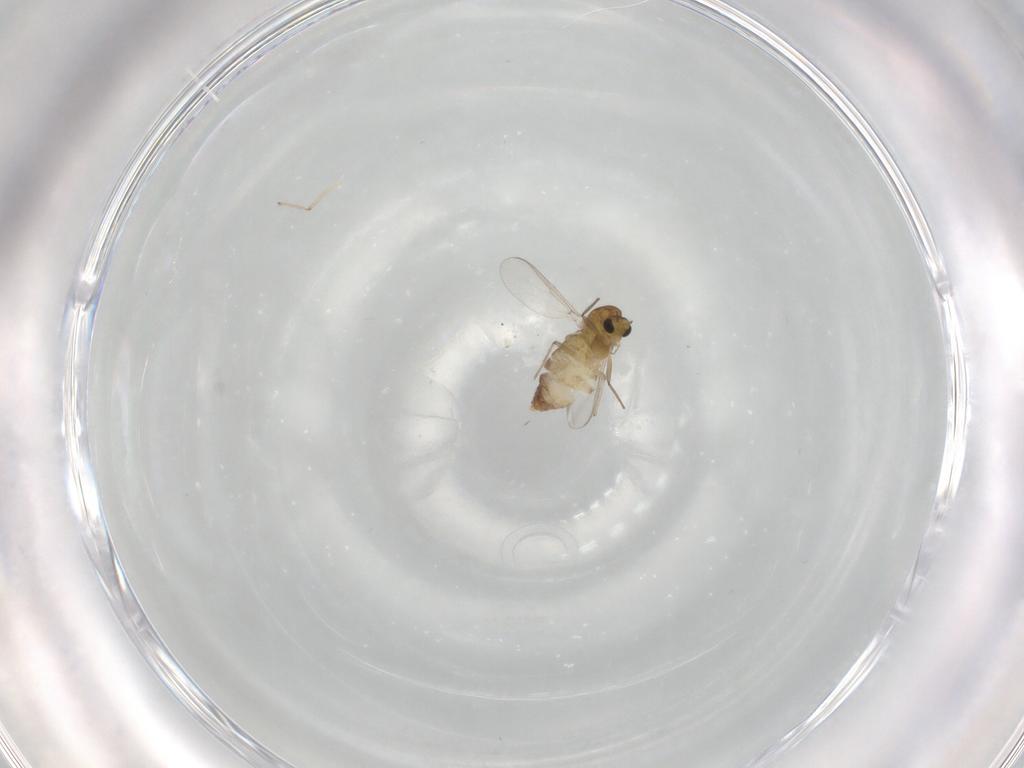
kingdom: Animalia
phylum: Arthropoda
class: Insecta
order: Diptera
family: Chironomidae
